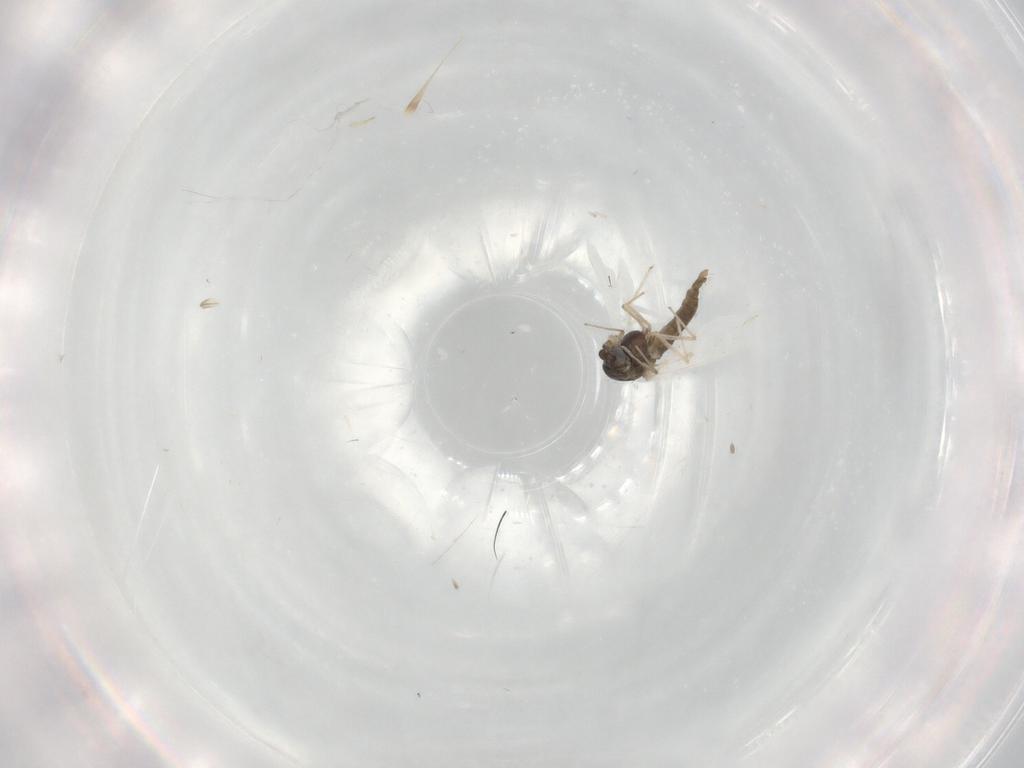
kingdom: Animalia
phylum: Arthropoda
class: Insecta
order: Diptera
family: Chironomidae
